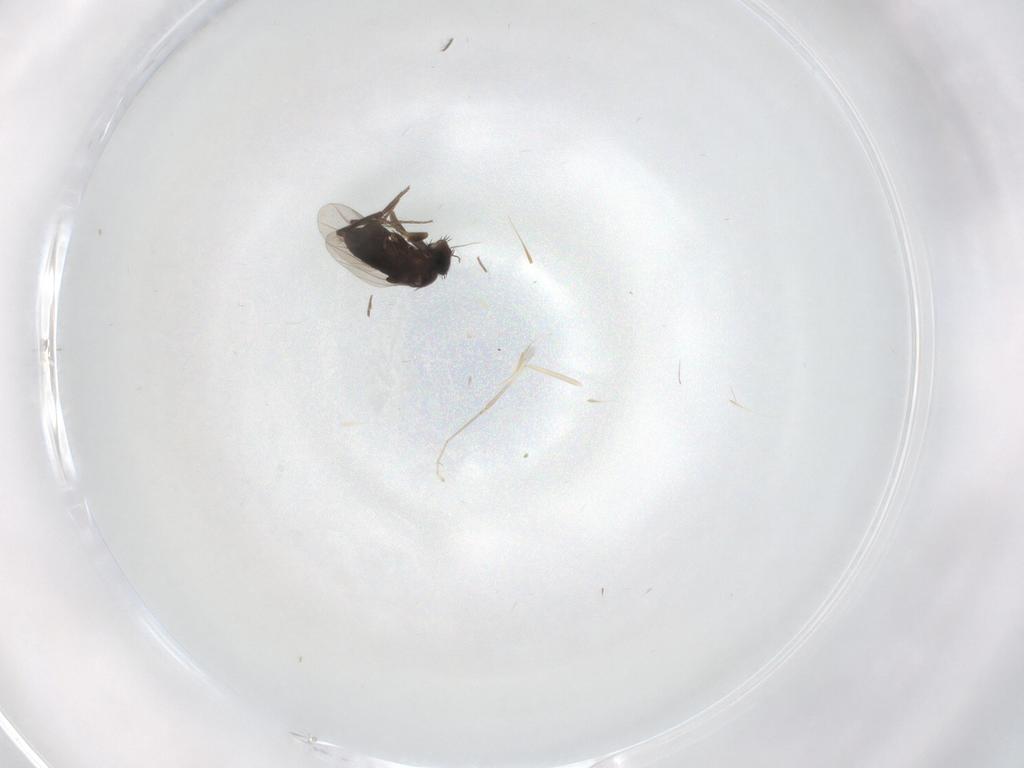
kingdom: Animalia
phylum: Arthropoda
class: Insecta
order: Diptera
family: Phoridae
